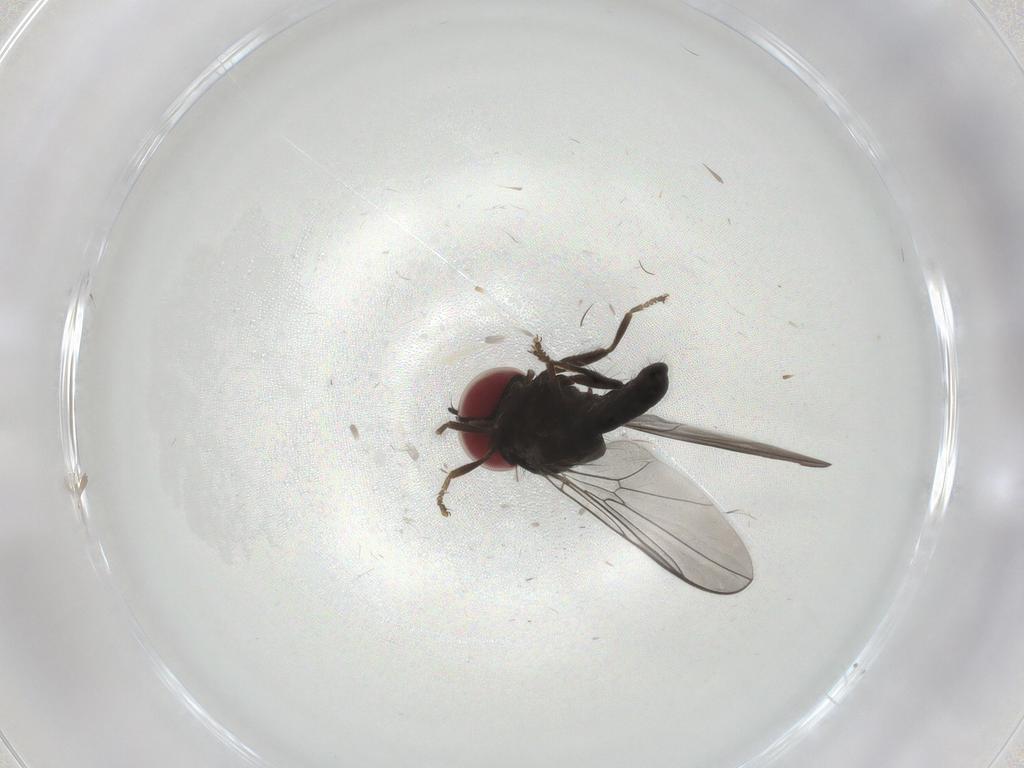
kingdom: Animalia
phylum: Arthropoda
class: Insecta
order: Diptera
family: Pipunculidae
